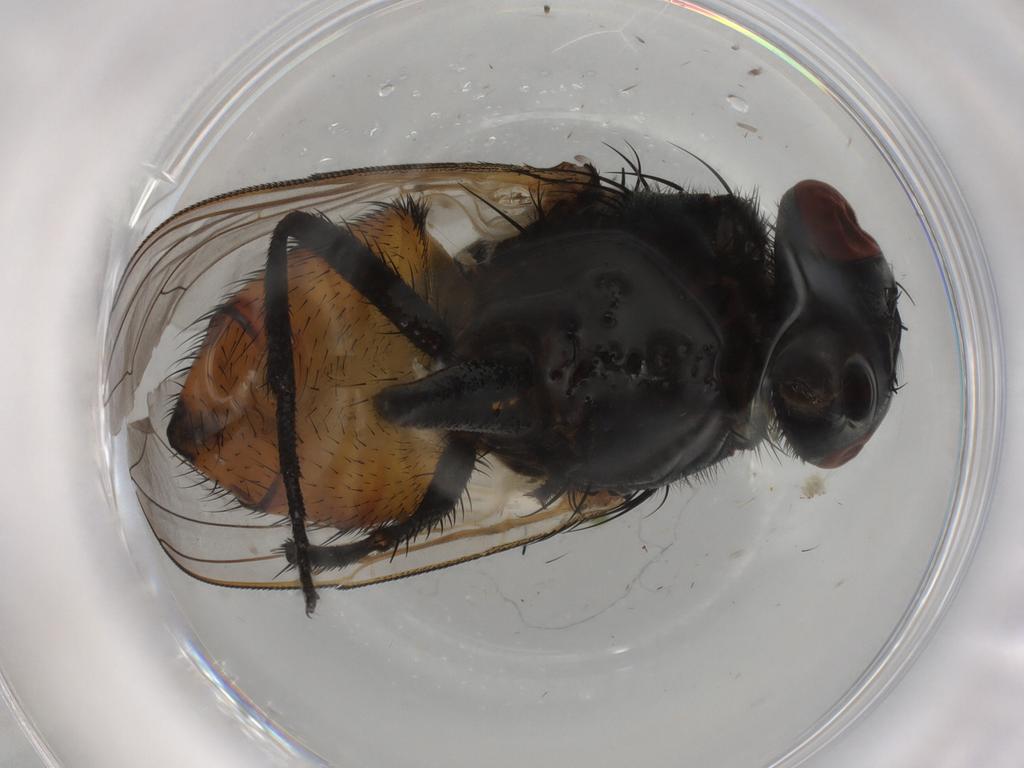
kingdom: Animalia
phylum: Arthropoda
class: Insecta
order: Diptera
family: Muscidae
